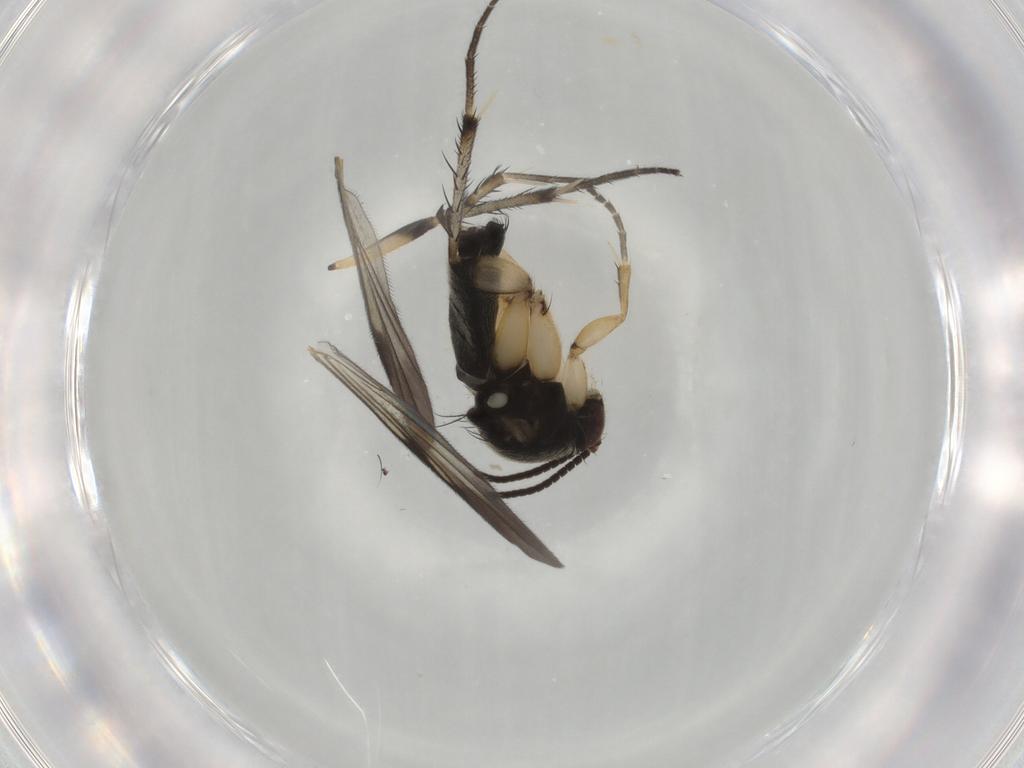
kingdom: Animalia
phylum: Arthropoda
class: Insecta
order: Diptera
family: Mycetophilidae
